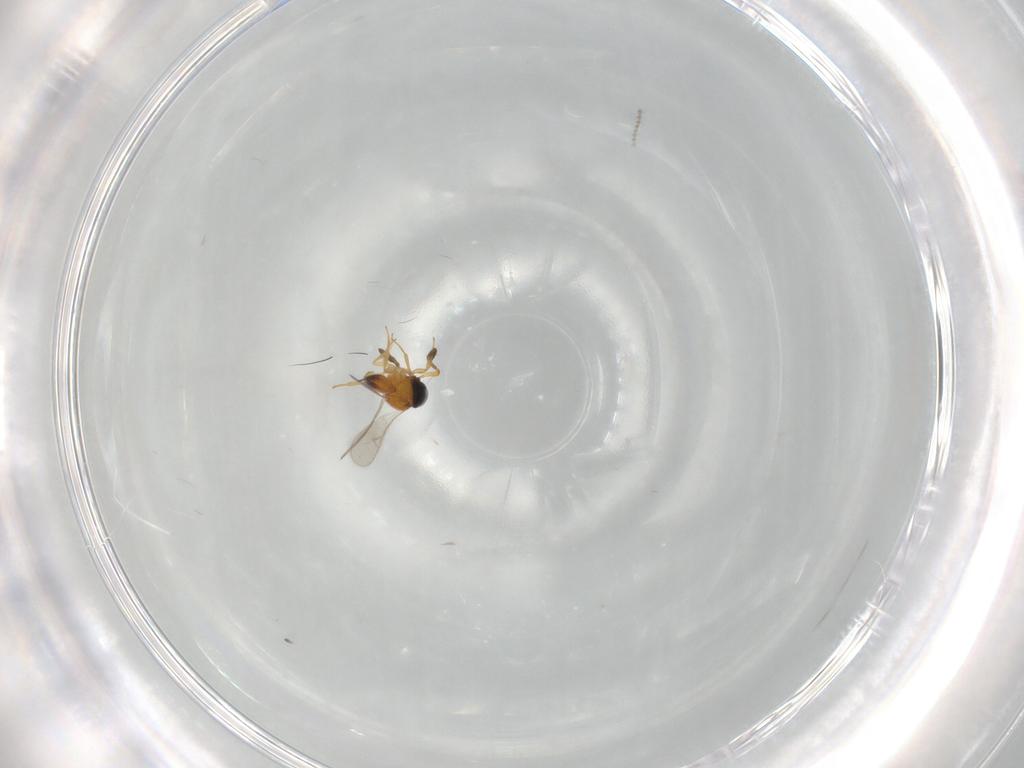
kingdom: Animalia
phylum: Arthropoda
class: Insecta
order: Hymenoptera
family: Scelionidae
